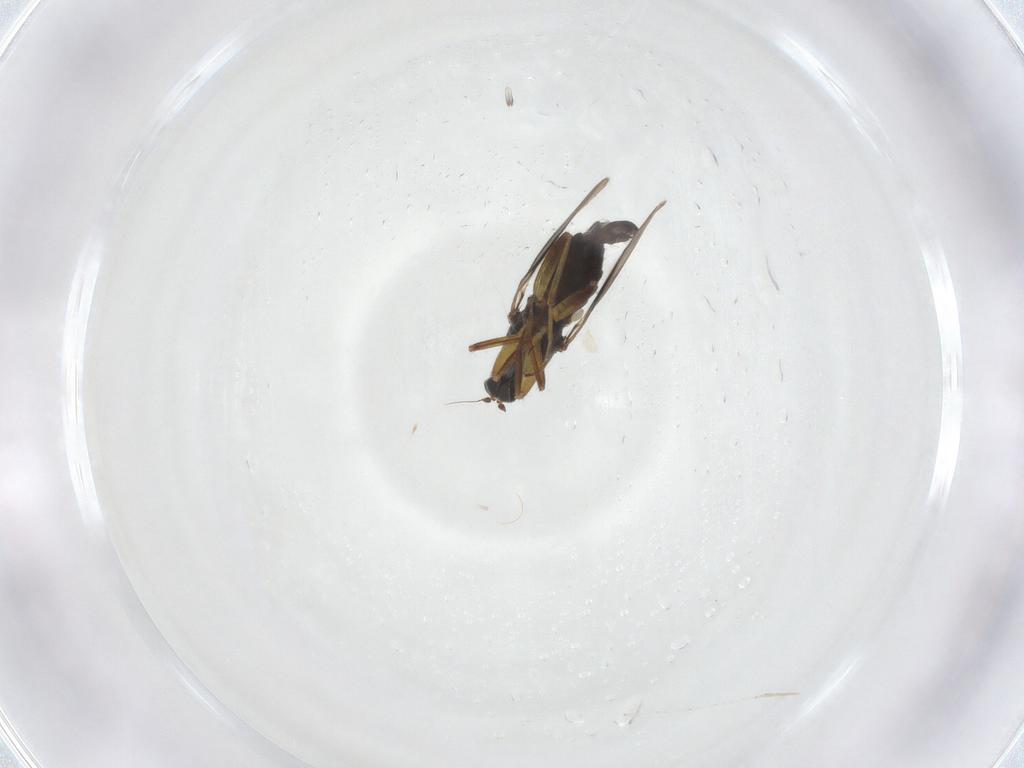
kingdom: Animalia
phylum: Arthropoda
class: Insecta
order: Diptera
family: Hybotidae
